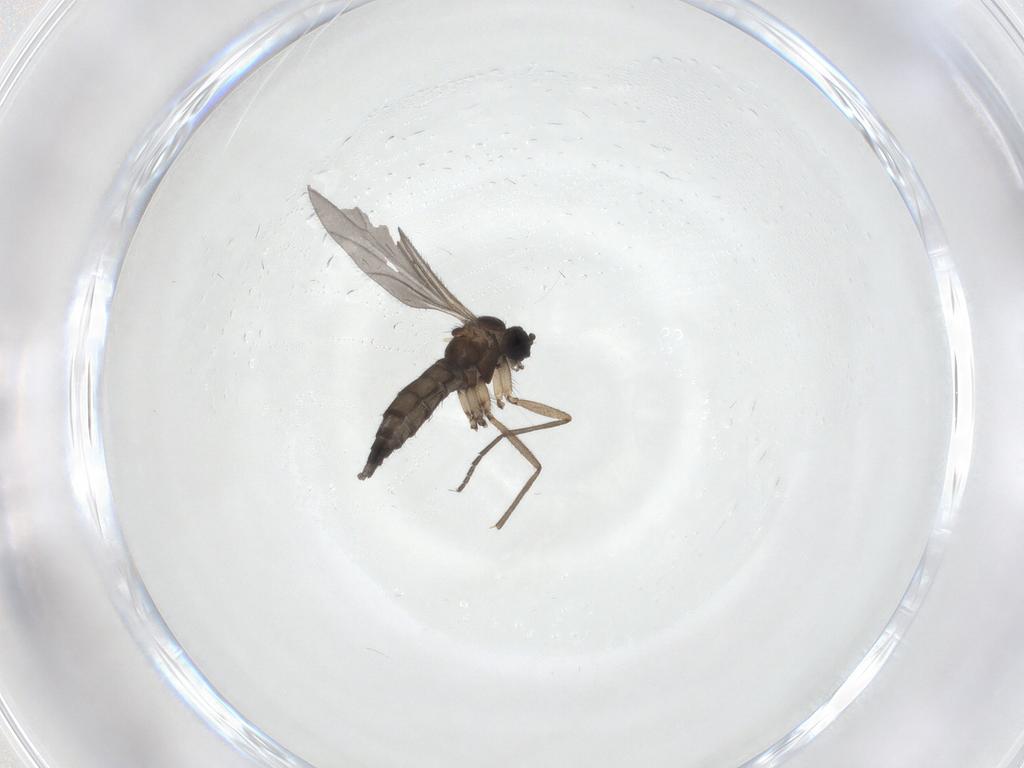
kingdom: Animalia
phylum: Arthropoda
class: Insecta
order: Diptera
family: Sciaridae
